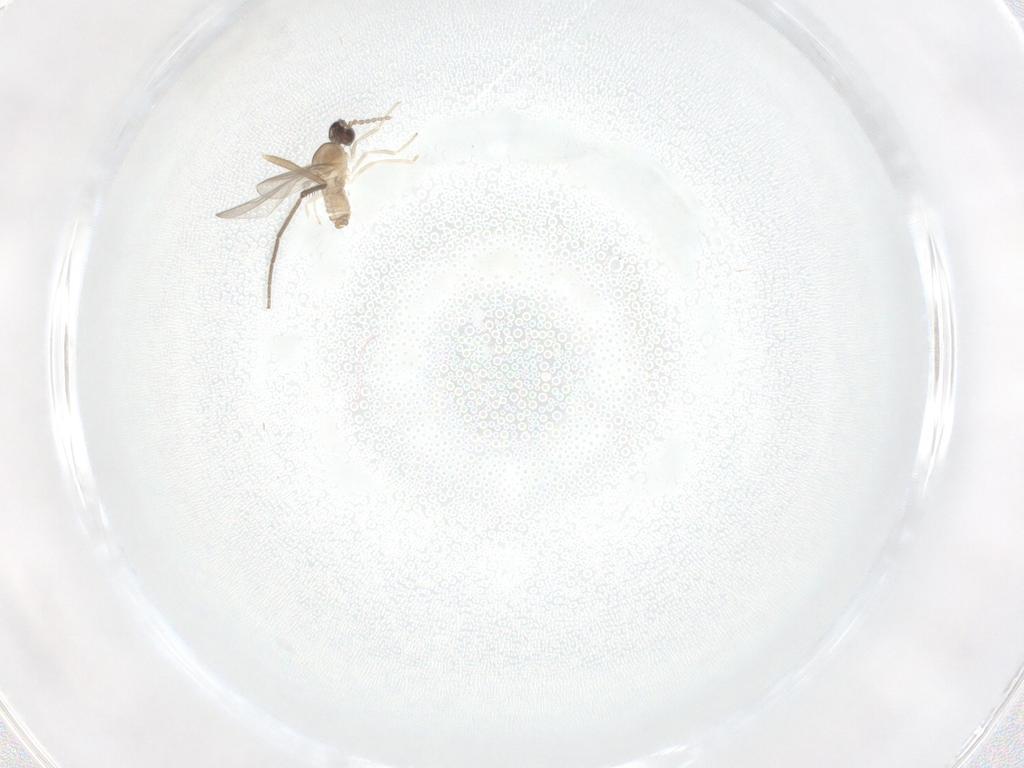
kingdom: Animalia
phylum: Arthropoda
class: Insecta
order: Diptera
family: Cecidomyiidae
